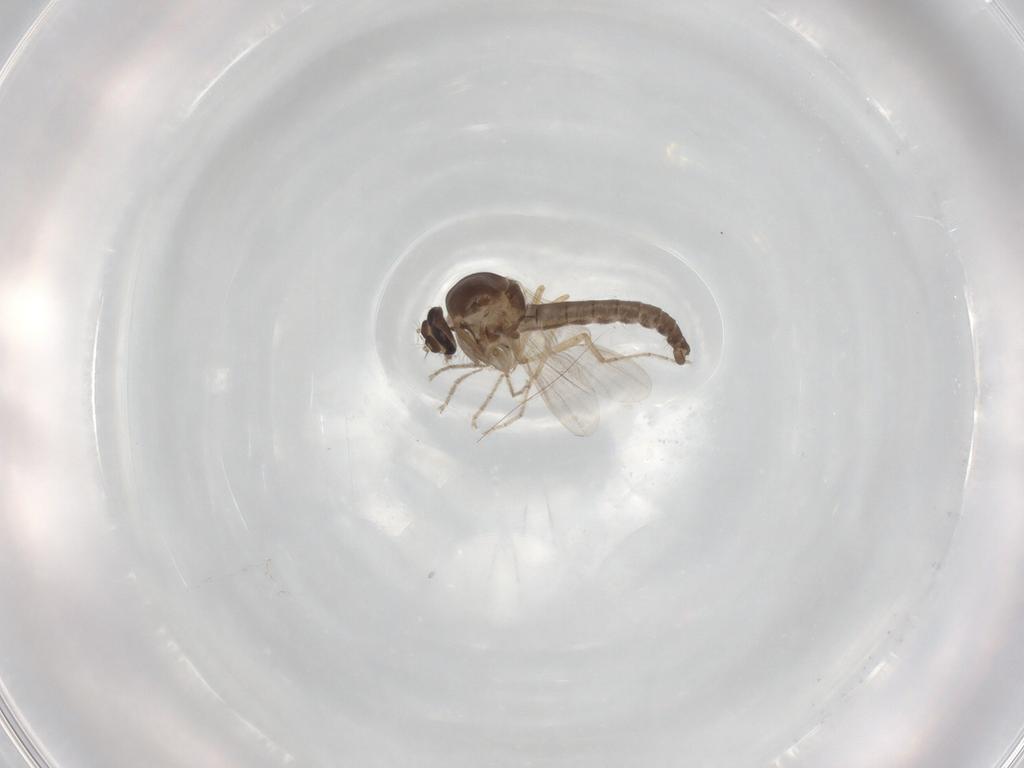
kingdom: Animalia
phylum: Arthropoda
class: Insecta
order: Diptera
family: Ceratopogonidae
